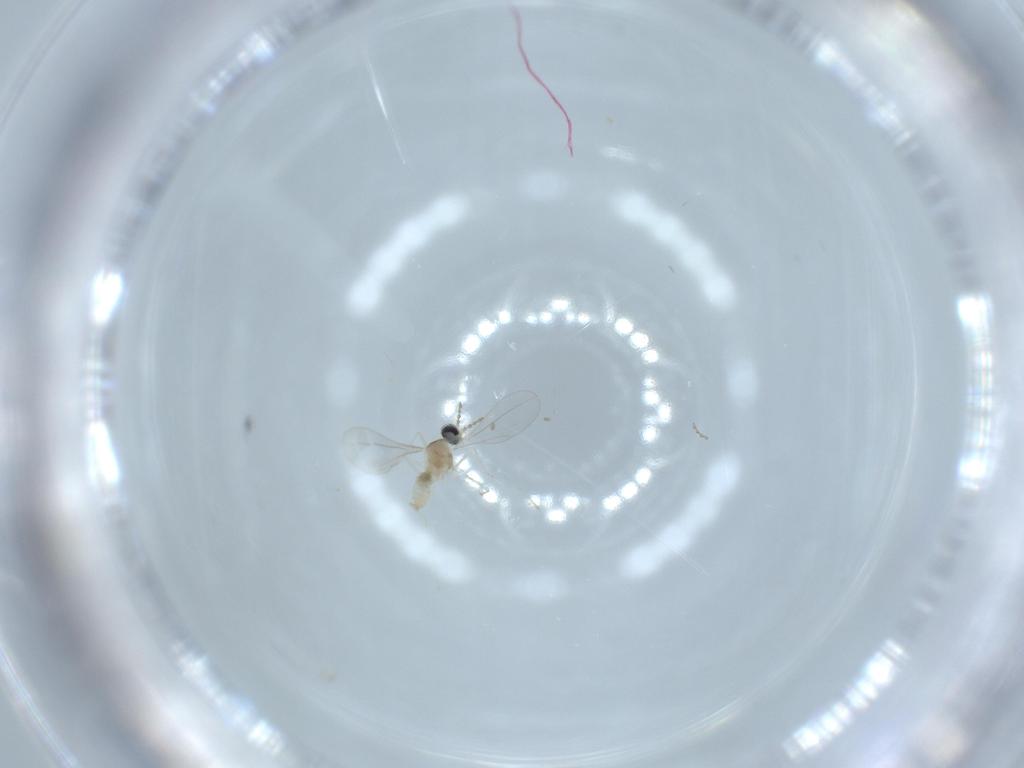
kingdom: Animalia
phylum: Arthropoda
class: Insecta
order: Diptera
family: Cecidomyiidae
